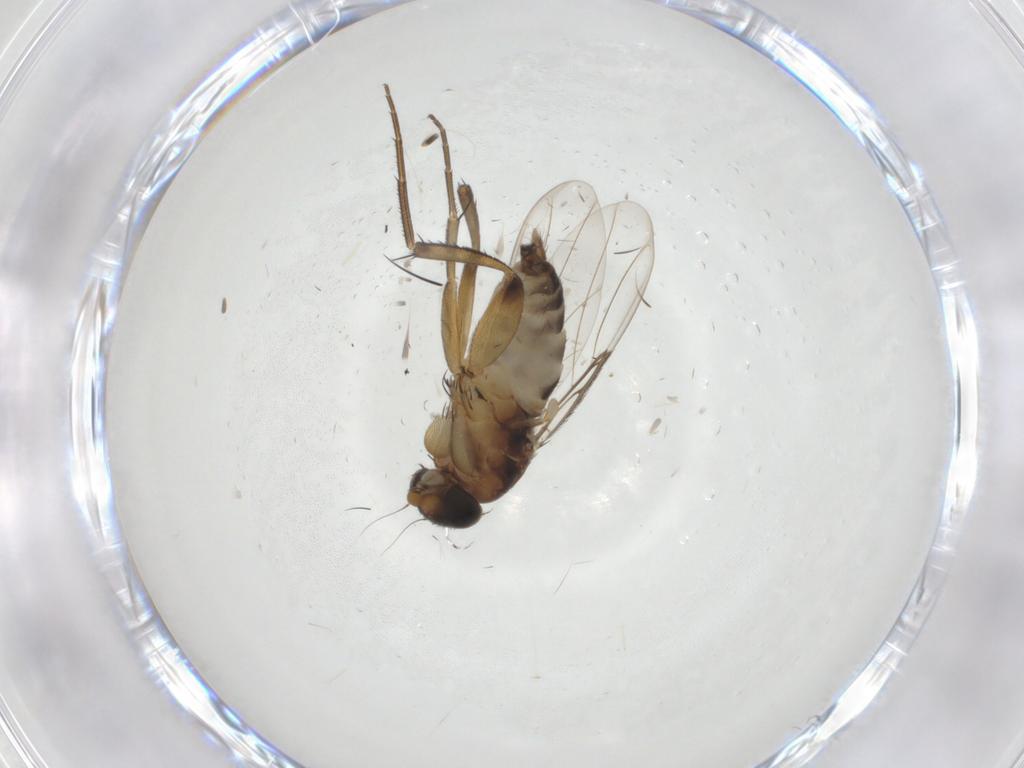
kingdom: Animalia
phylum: Arthropoda
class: Insecta
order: Diptera
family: Phoridae
